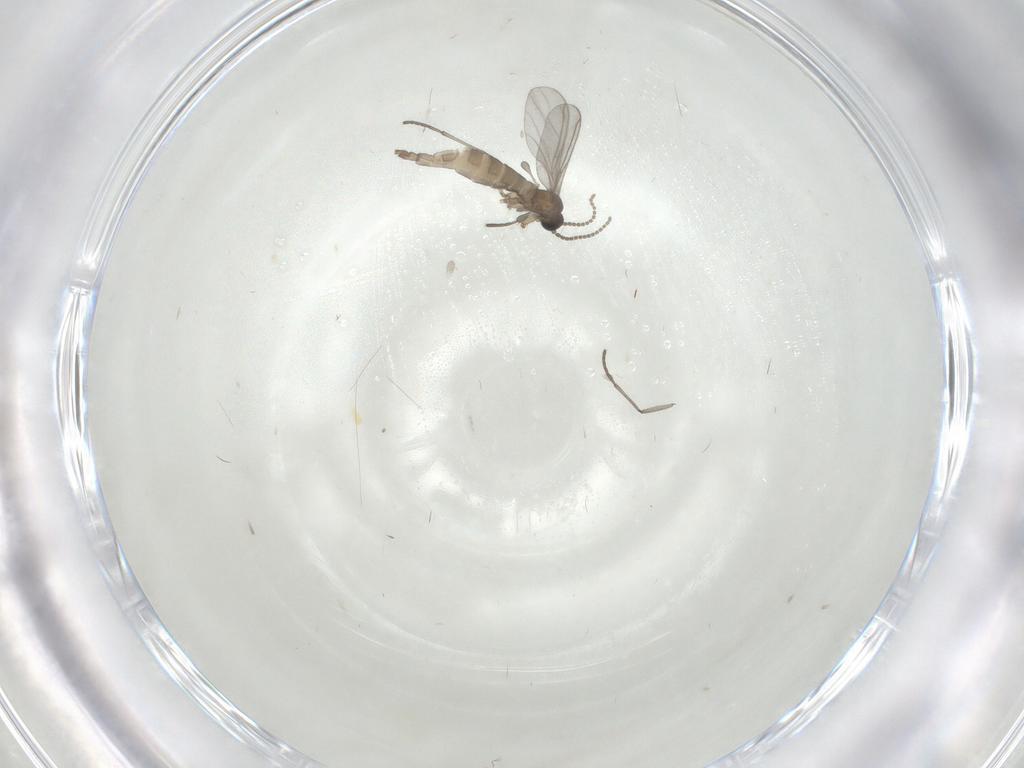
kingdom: Animalia
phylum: Arthropoda
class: Insecta
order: Diptera
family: Sciaridae
